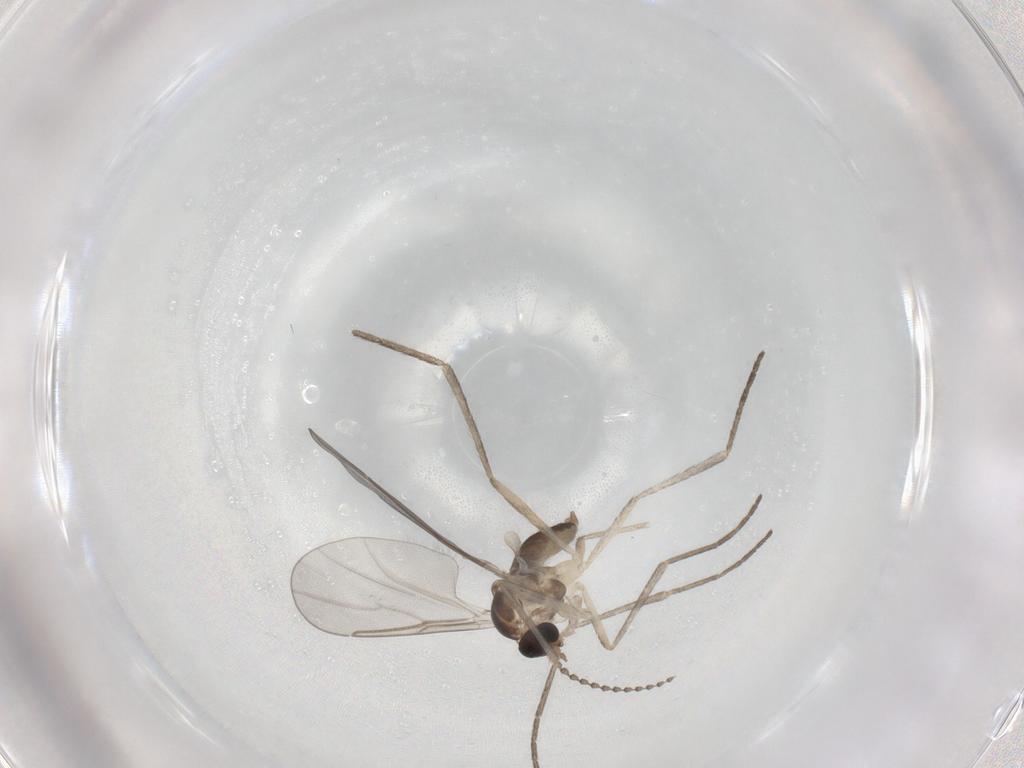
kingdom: Animalia
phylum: Arthropoda
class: Insecta
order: Diptera
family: Cecidomyiidae
